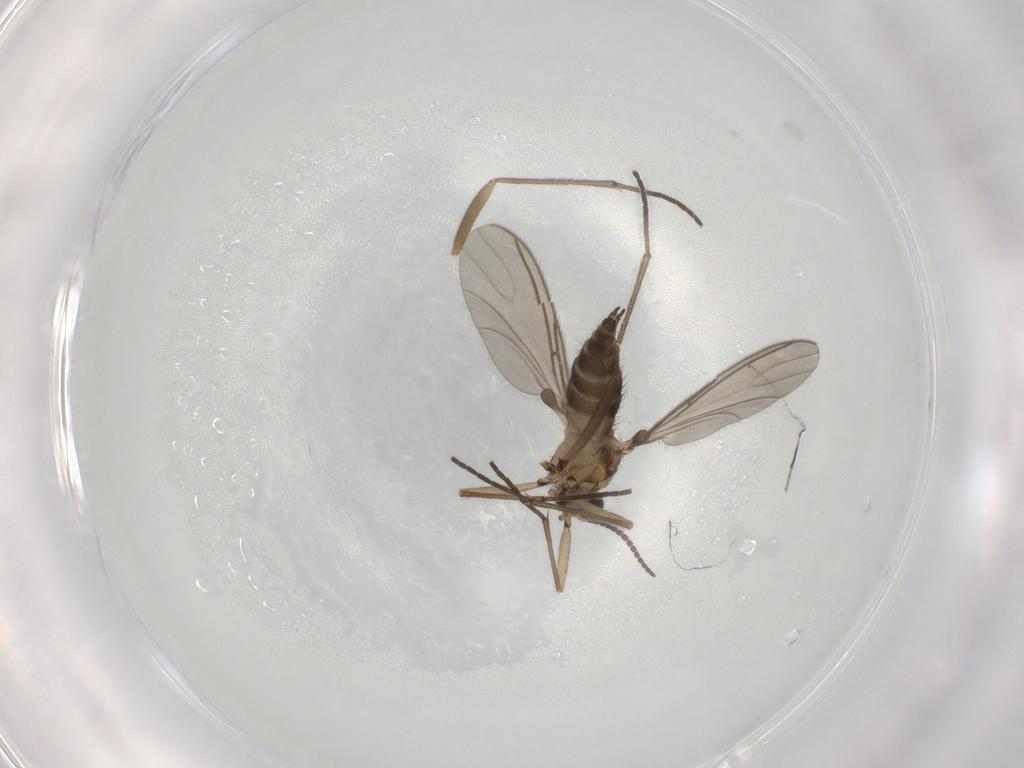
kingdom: Animalia
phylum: Arthropoda
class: Insecta
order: Diptera
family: Sciaridae
